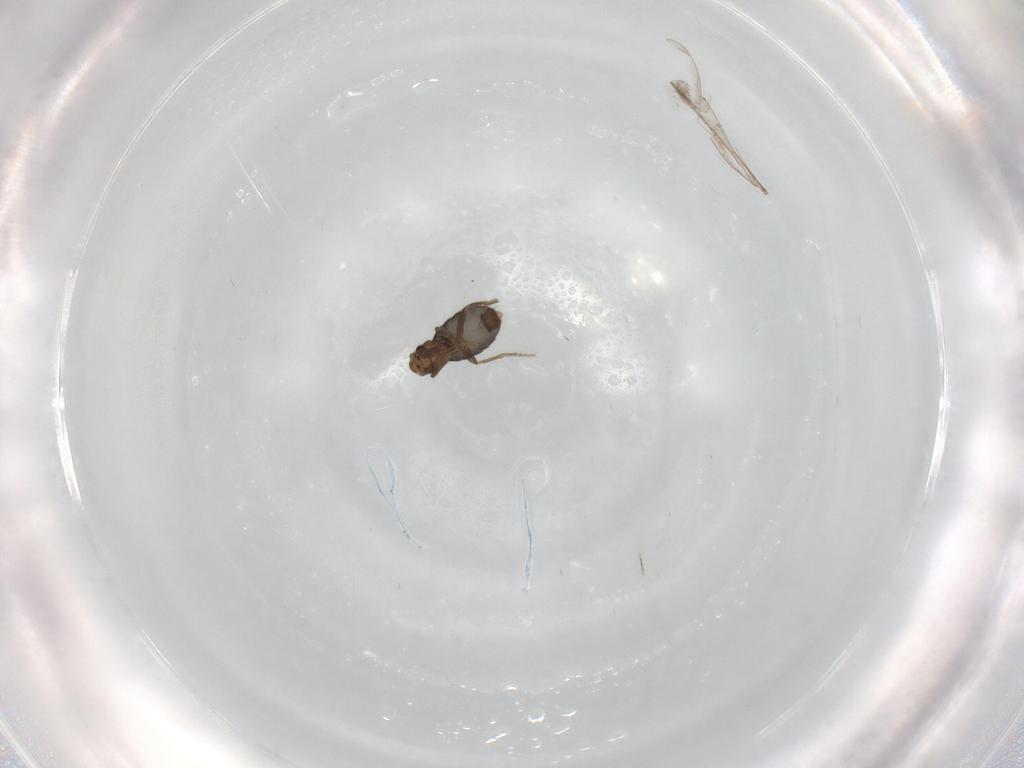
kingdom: Animalia
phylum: Arthropoda
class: Insecta
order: Diptera
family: Phoridae
